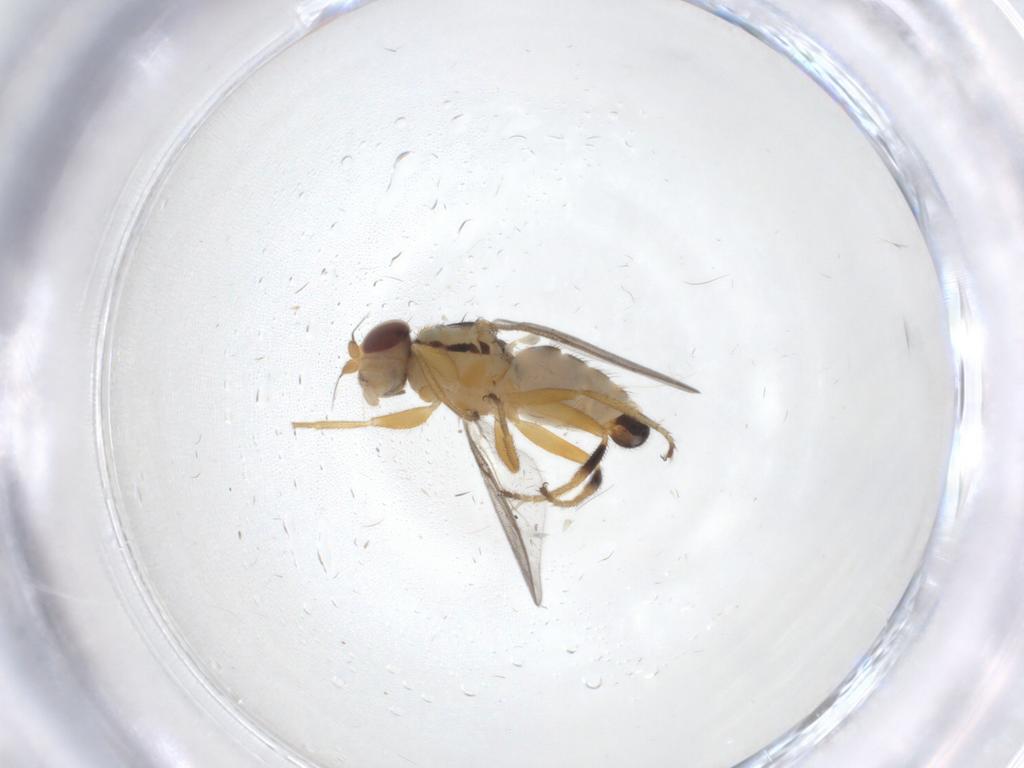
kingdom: Animalia
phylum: Arthropoda
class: Insecta
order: Diptera
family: Chloropidae
